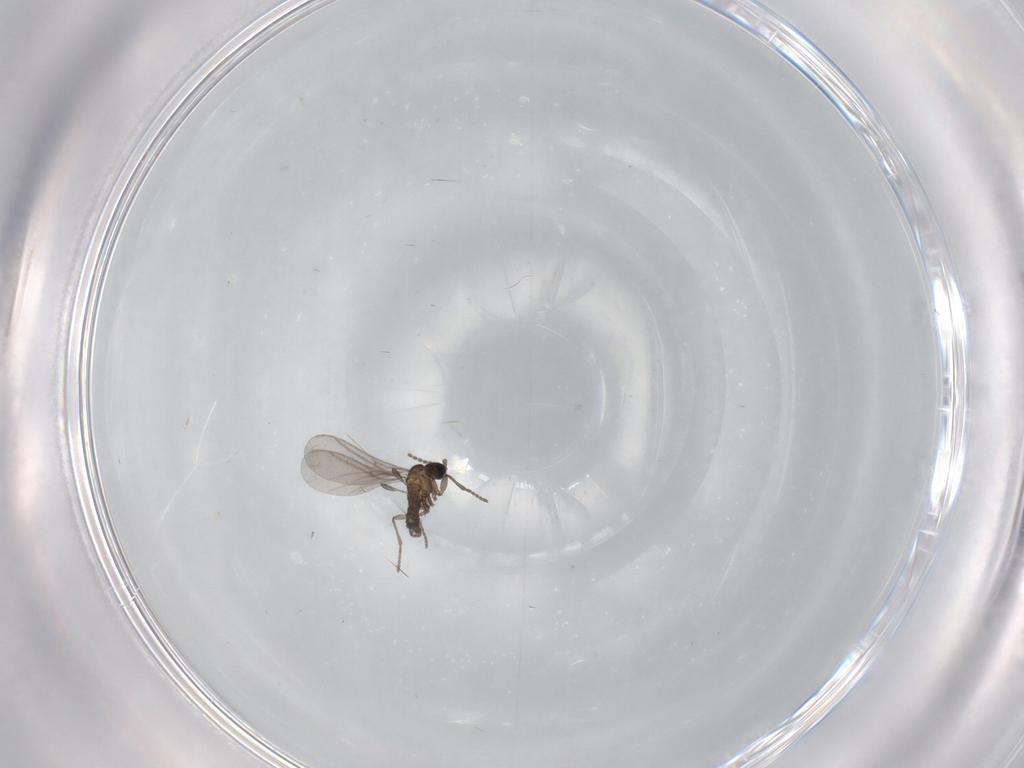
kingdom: Animalia
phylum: Arthropoda
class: Insecta
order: Diptera
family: Sciaridae
